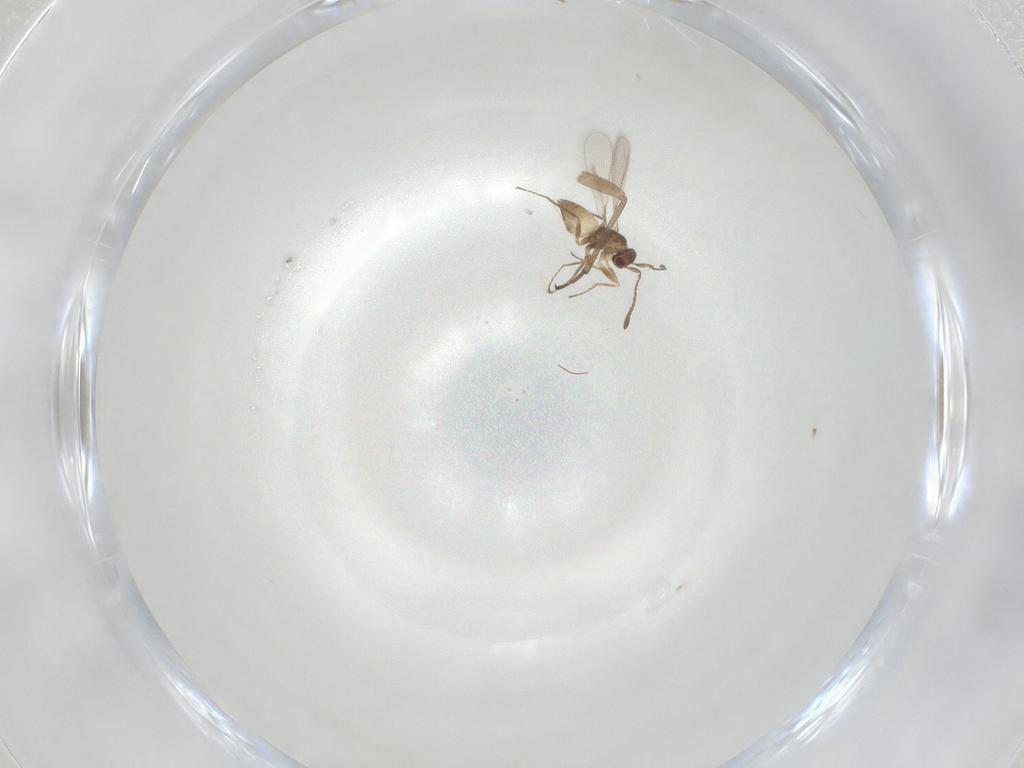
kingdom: Animalia
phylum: Arthropoda
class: Insecta
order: Hymenoptera
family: Mymaridae
